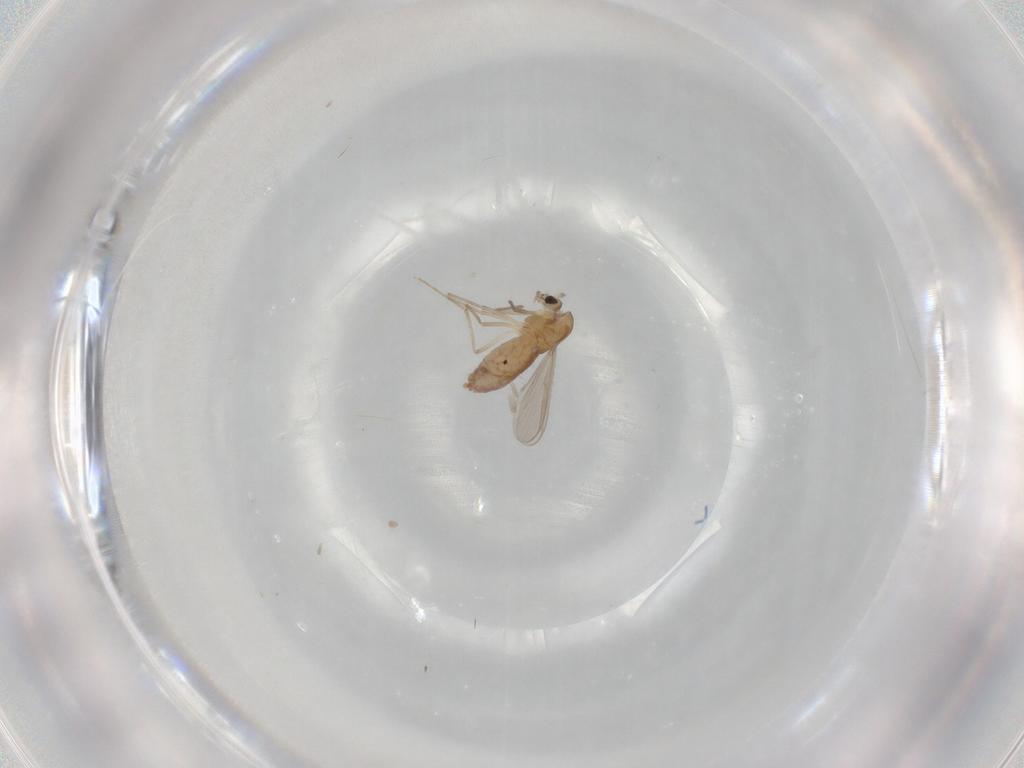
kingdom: Animalia
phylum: Arthropoda
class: Insecta
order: Diptera
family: Chironomidae
